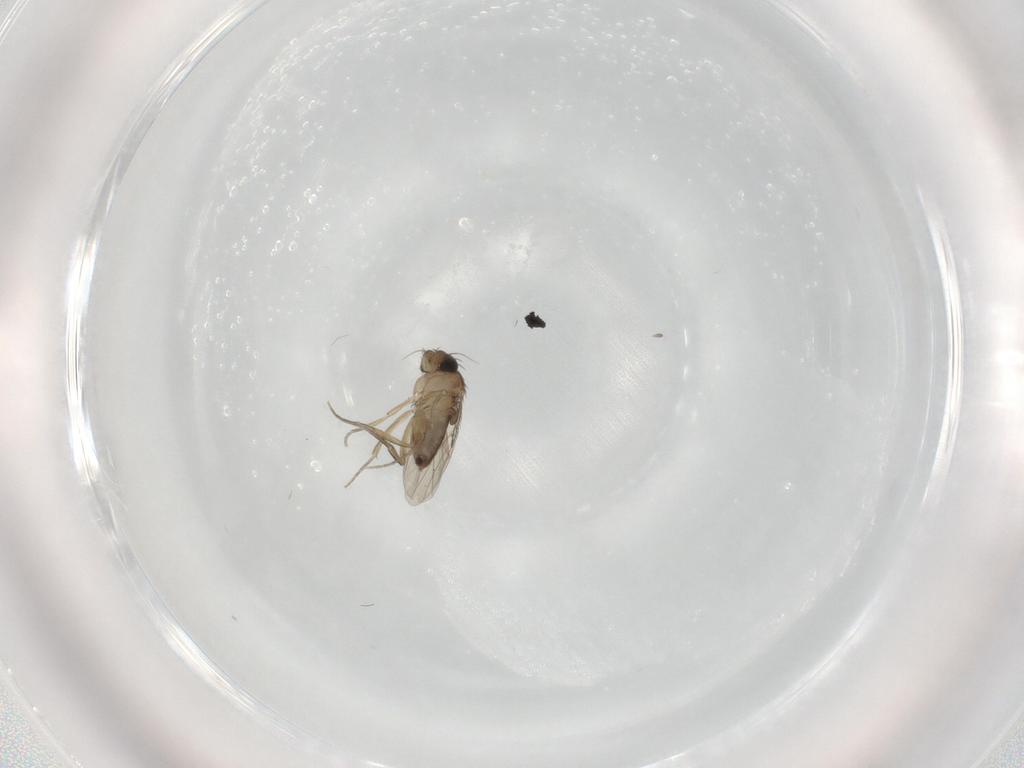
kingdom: Animalia
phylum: Arthropoda
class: Insecta
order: Diptera
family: Phoridae
